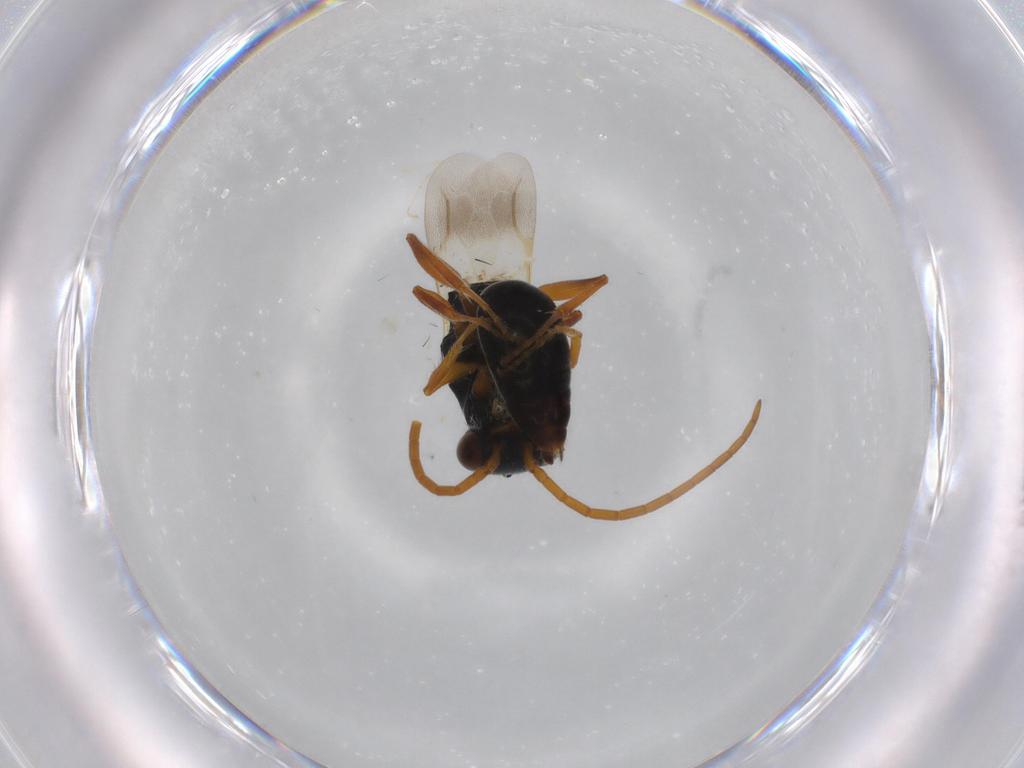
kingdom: Animalia
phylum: Arthropoda
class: Insecta
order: Hymenoptera
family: Bethylidae
